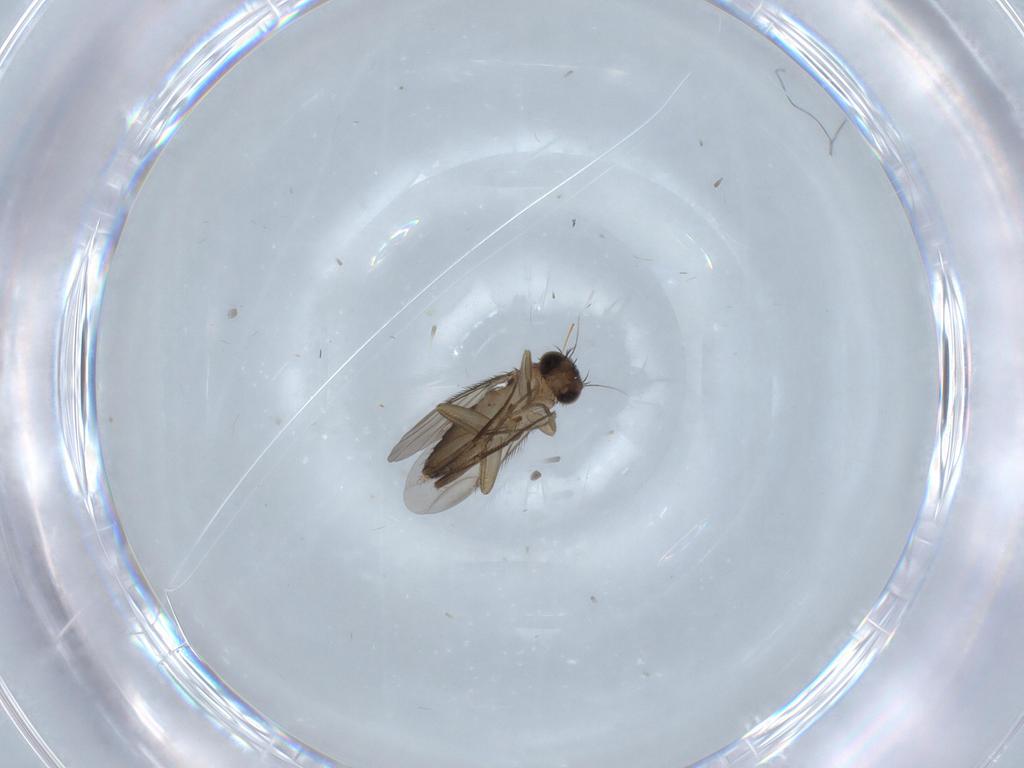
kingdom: Animalia
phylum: Arthropoda
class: Insecta
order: Diptera
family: Phoridae
